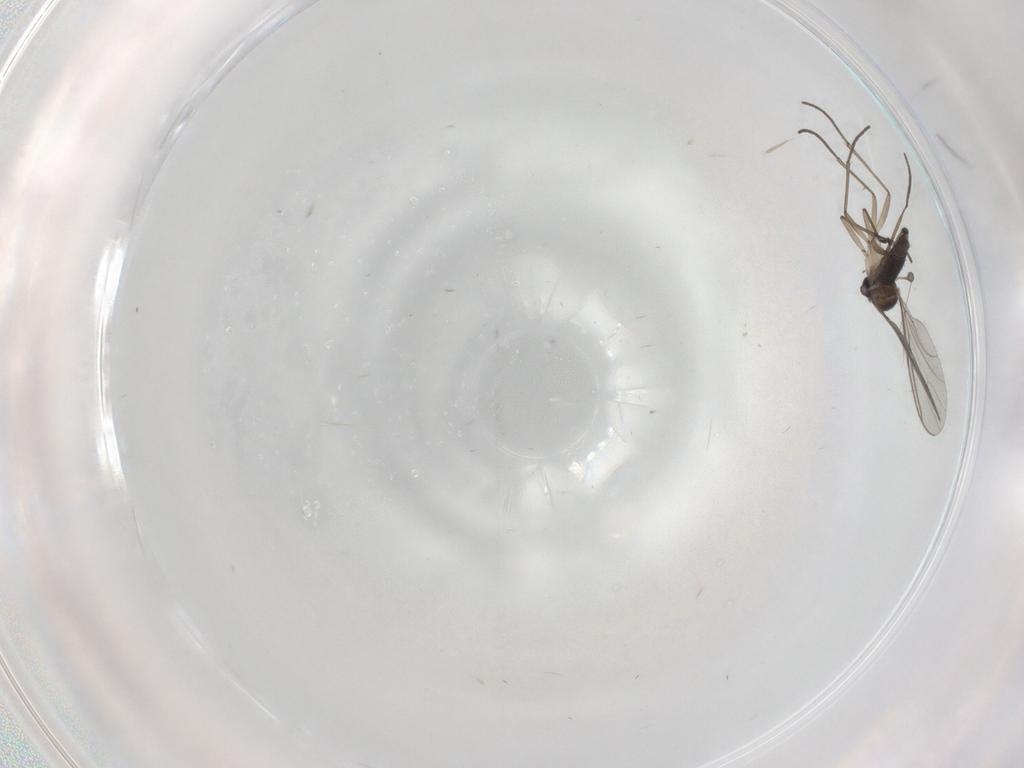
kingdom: Animalia
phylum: Arthropoda
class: Insecta
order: Diptera
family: Sciaridae
